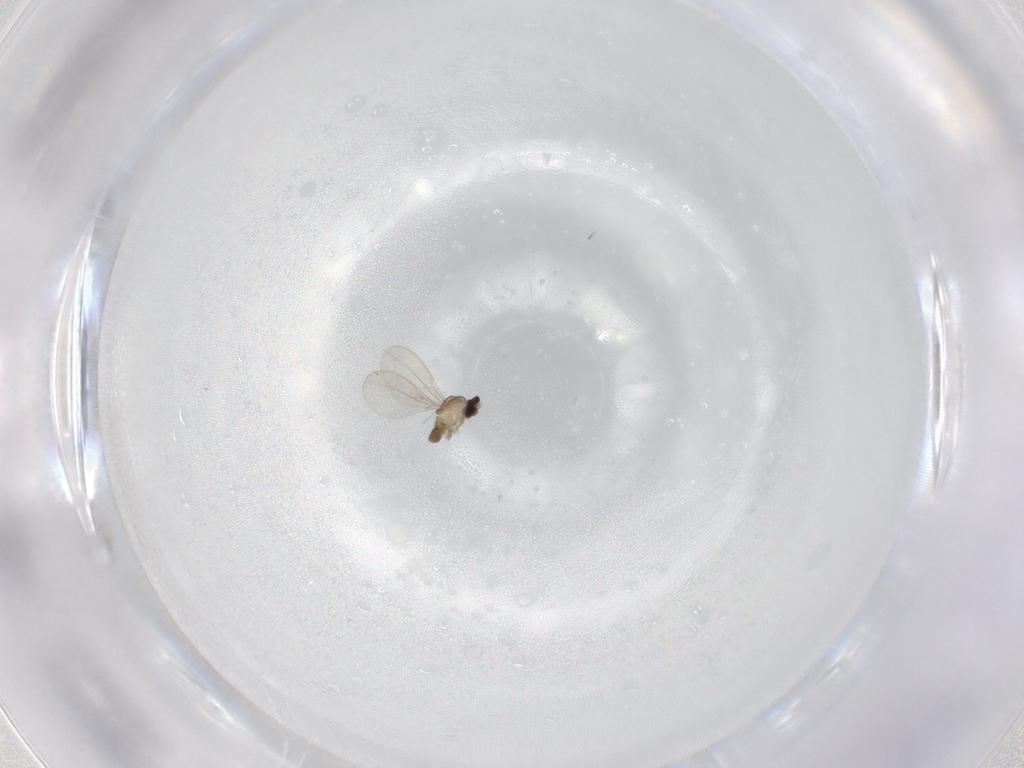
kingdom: Animalia
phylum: Arthropoda
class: Insecta
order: Diptera
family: Cecidomyiidae
